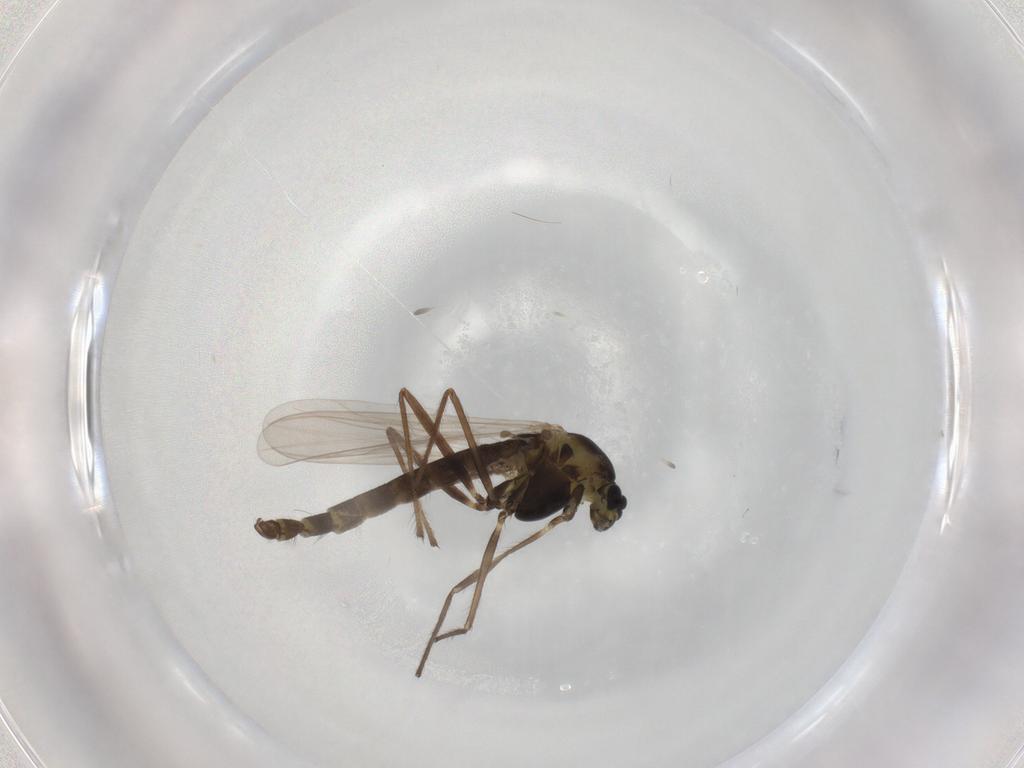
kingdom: Animalia
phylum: Arthropoda
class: Insecta
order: Diptera
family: Chironomidae
